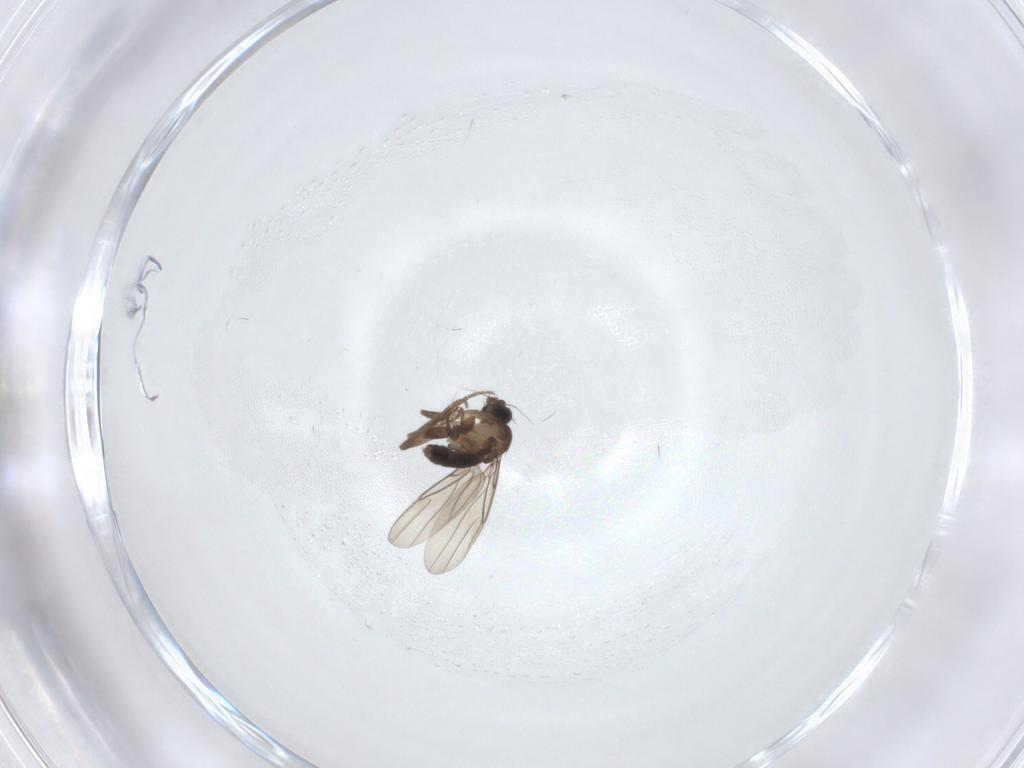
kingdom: Animalia
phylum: Arthropoda
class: Insecta
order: Diptera
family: Phoridae
